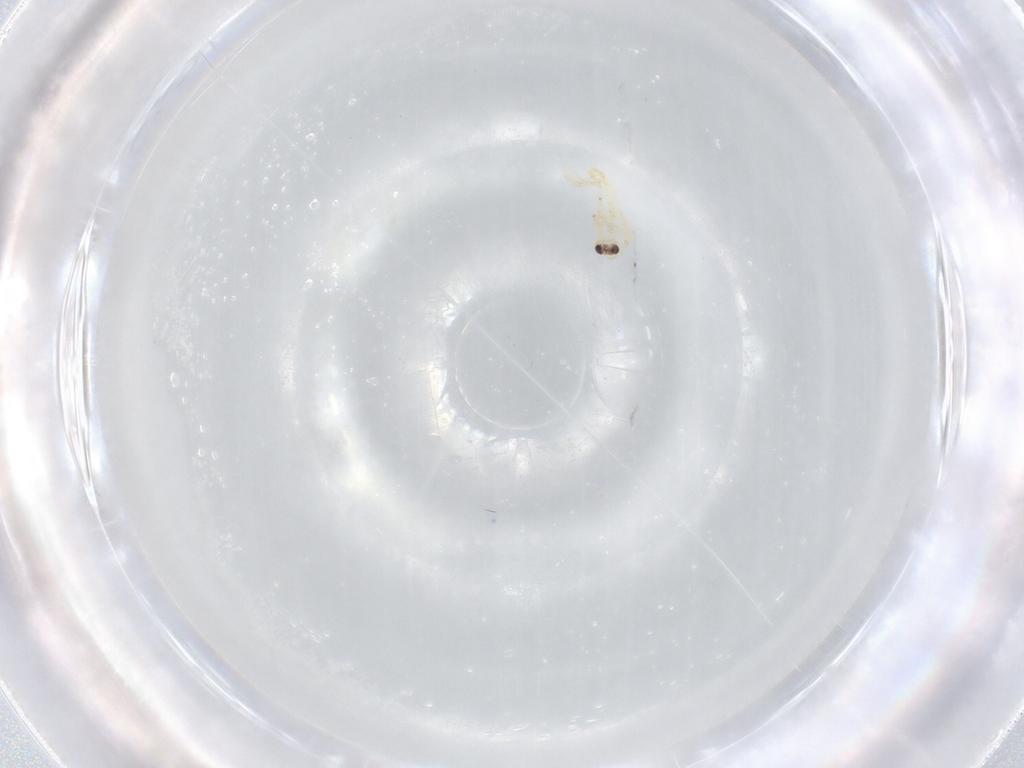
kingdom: Animalia
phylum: Arthropoda
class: Insecta
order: Diptera
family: Chironomidae
